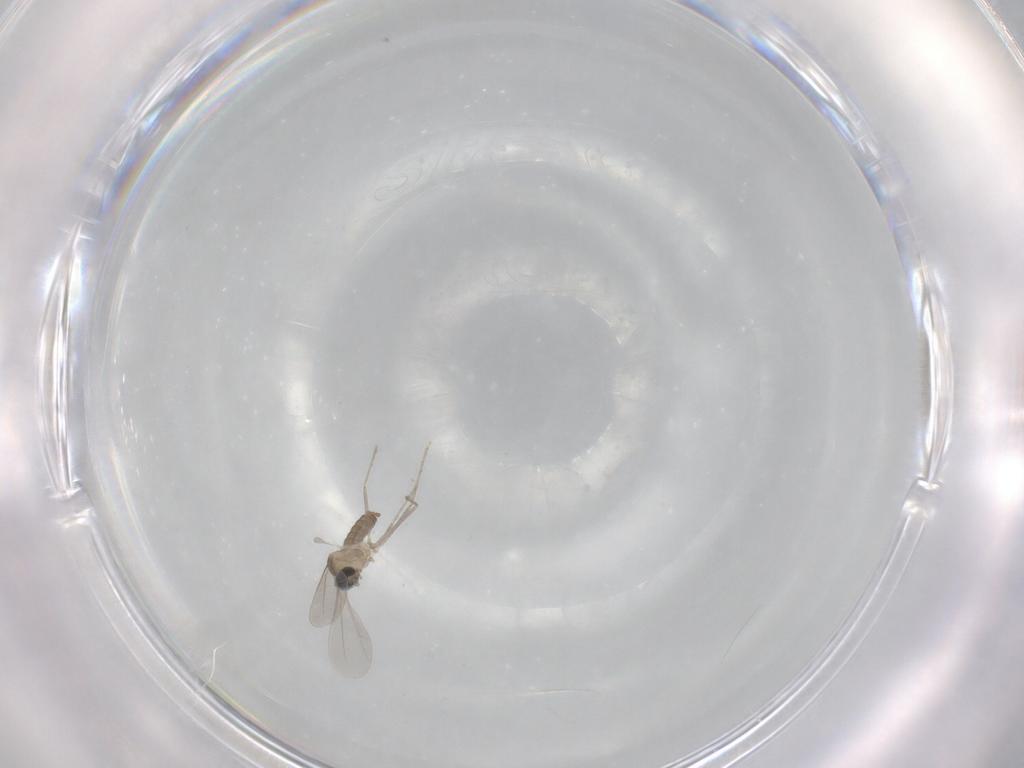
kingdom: Animalia
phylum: Arthropoda
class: Insecta
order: Diptera
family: Cecidomyiidae
